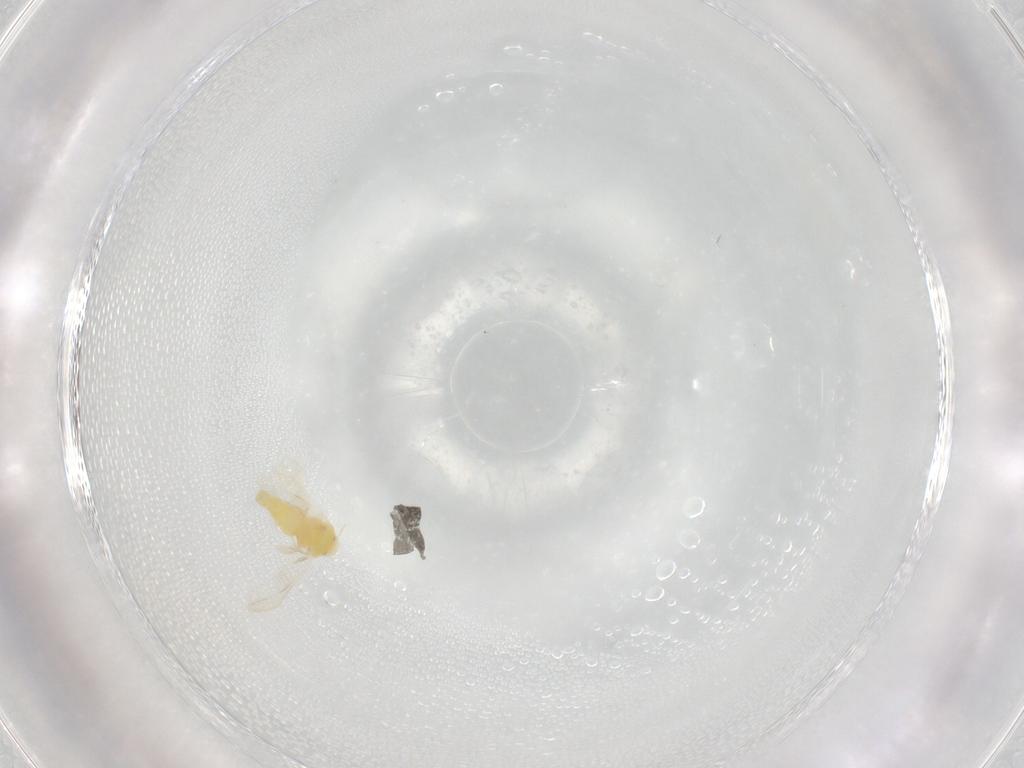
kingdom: Animalia
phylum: Arthropoda
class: Insecta
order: Hemiptera
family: Aleyrodidae
